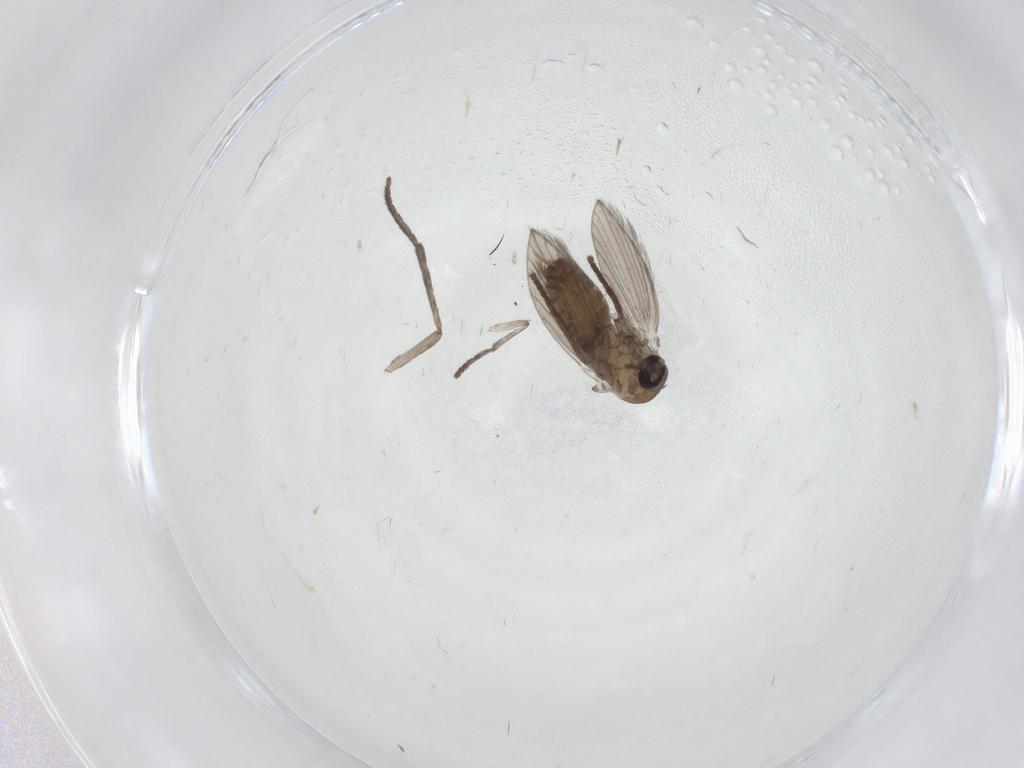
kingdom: Animalia
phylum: Arthropoda
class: Insecta
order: Diptera
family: Psychodidae
